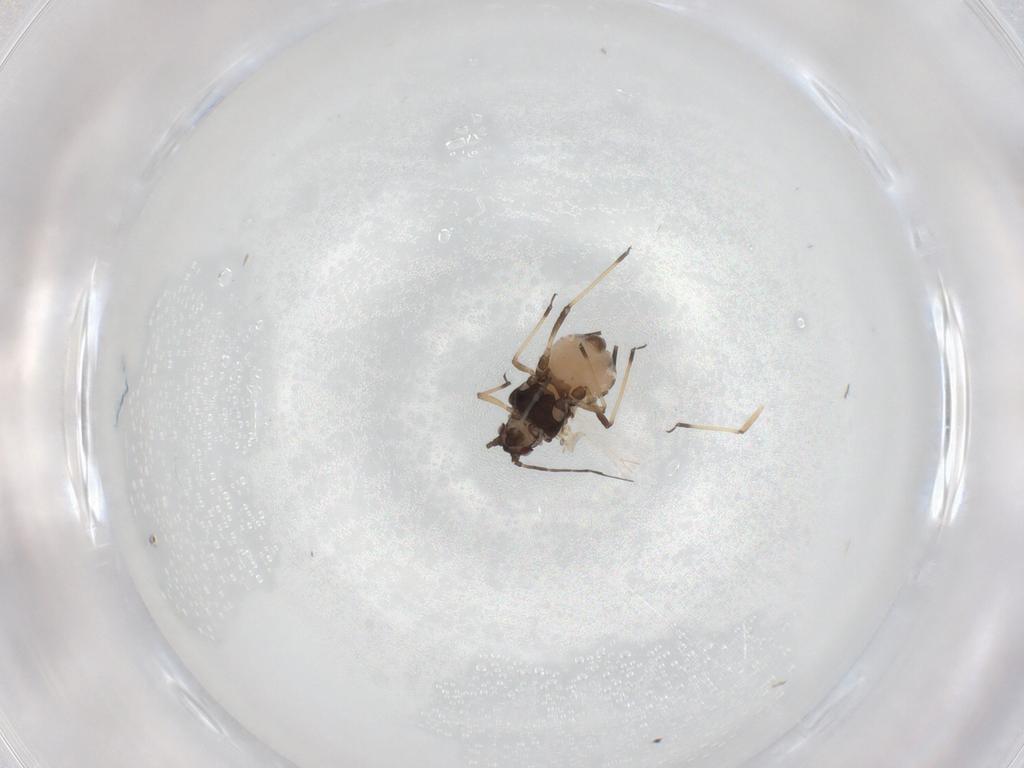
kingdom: Animalia
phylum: Arthropoda
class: Insecta
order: Hemiptera
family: Aphididae
